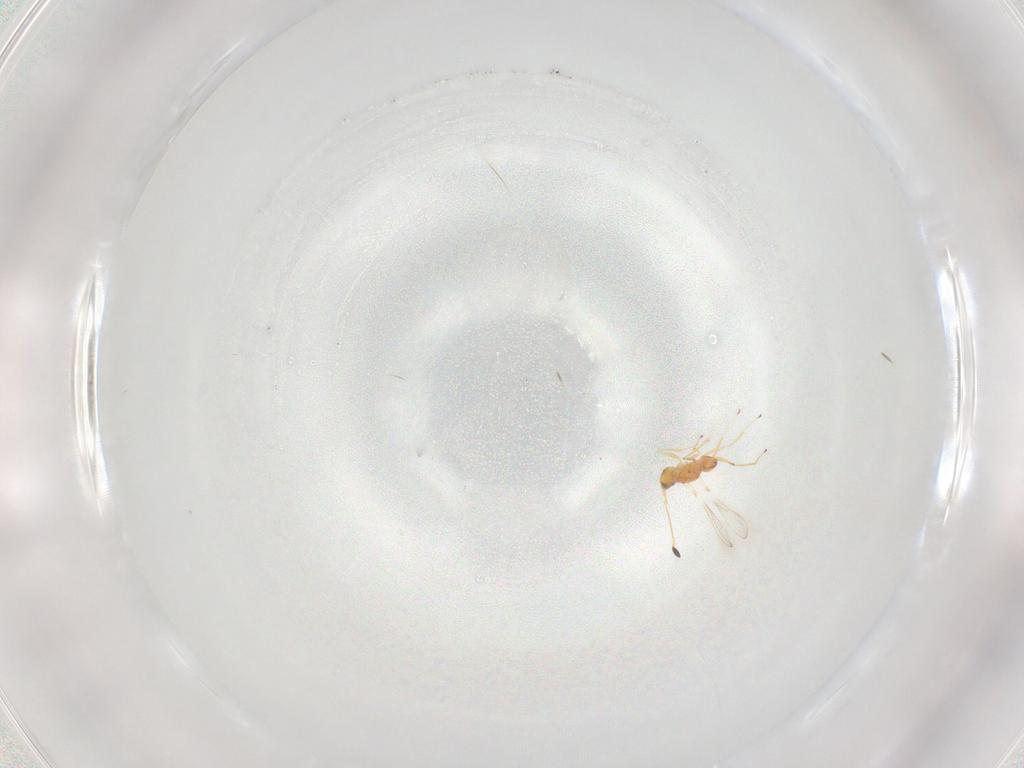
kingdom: Animalia
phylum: Arthropoda
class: Insecta
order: Hymenoptera
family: Mymaridae
